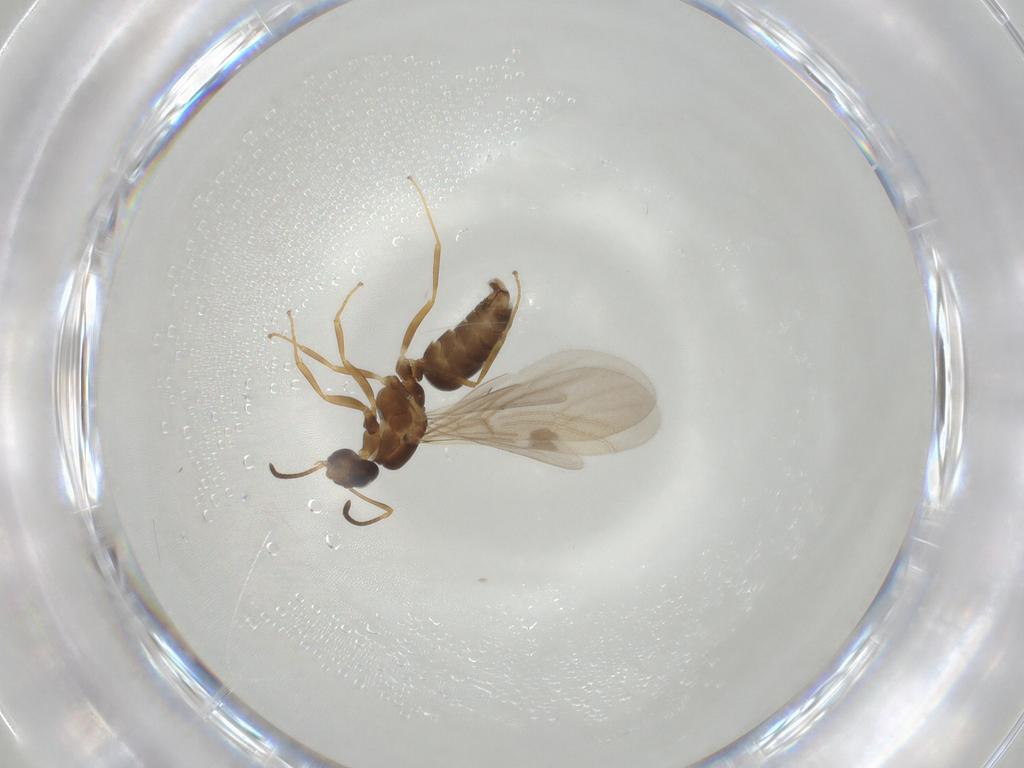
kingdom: Animalia
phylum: Arthropoda
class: Insecta
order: Hymenoptera
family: Formicidae
